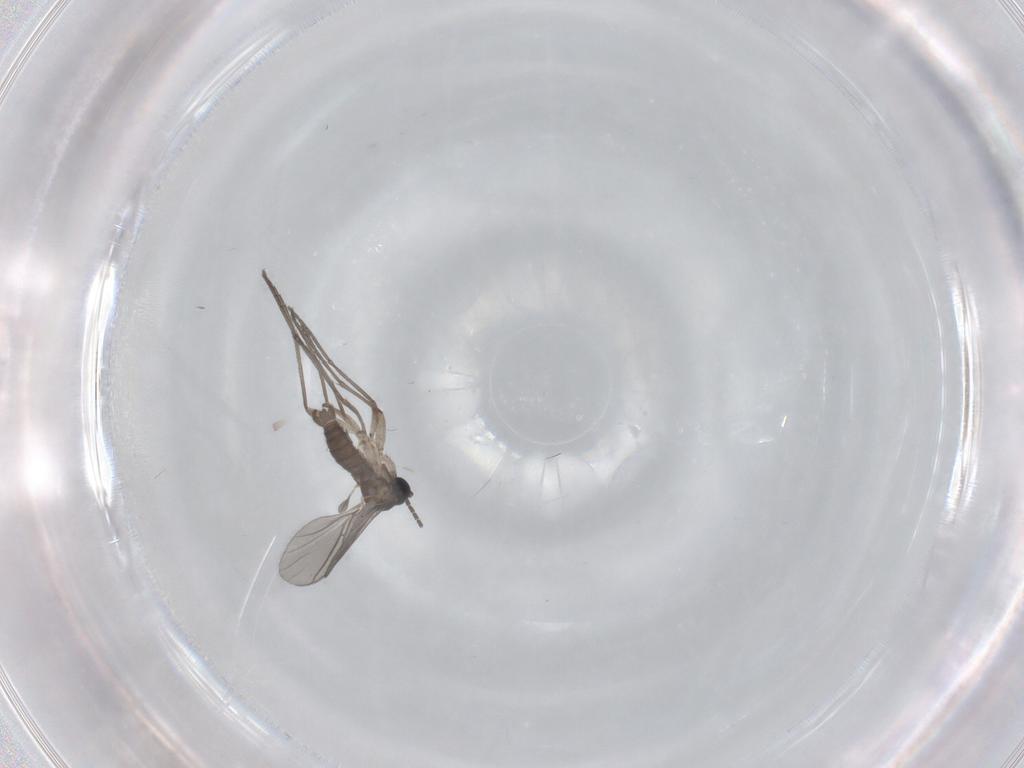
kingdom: Animalia
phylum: Arthropoda
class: Insecta
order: Diptera
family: Sciaridae
